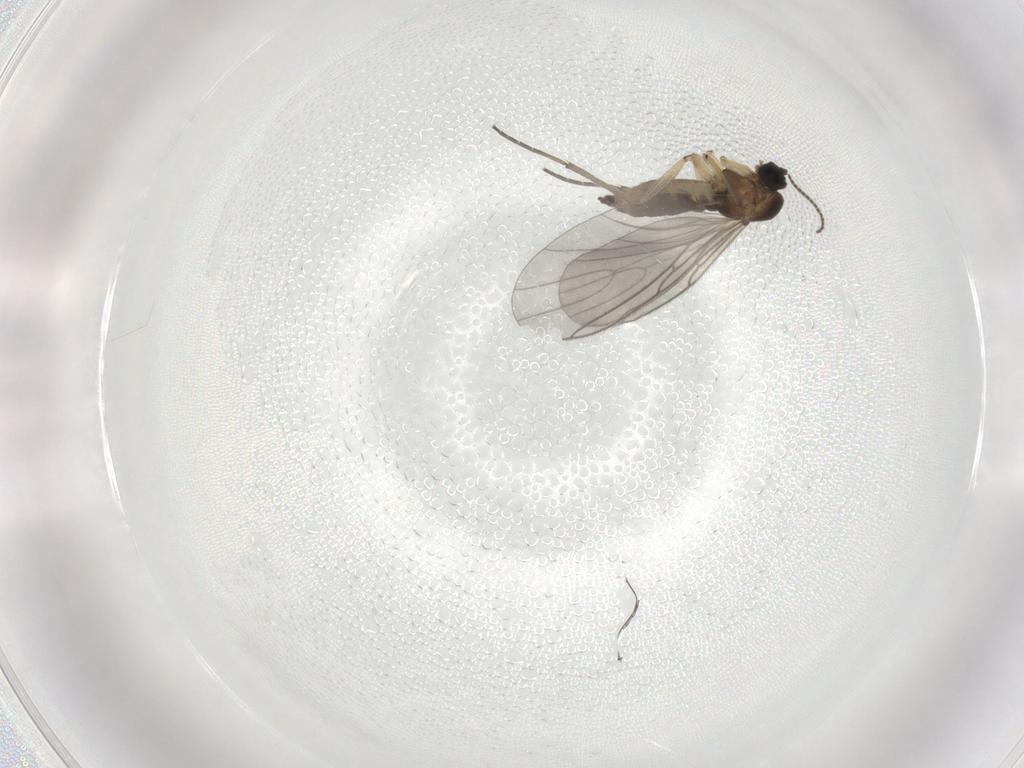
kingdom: Animalia
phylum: Arthropoda
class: Insecta
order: Diptera
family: Sciaridae
